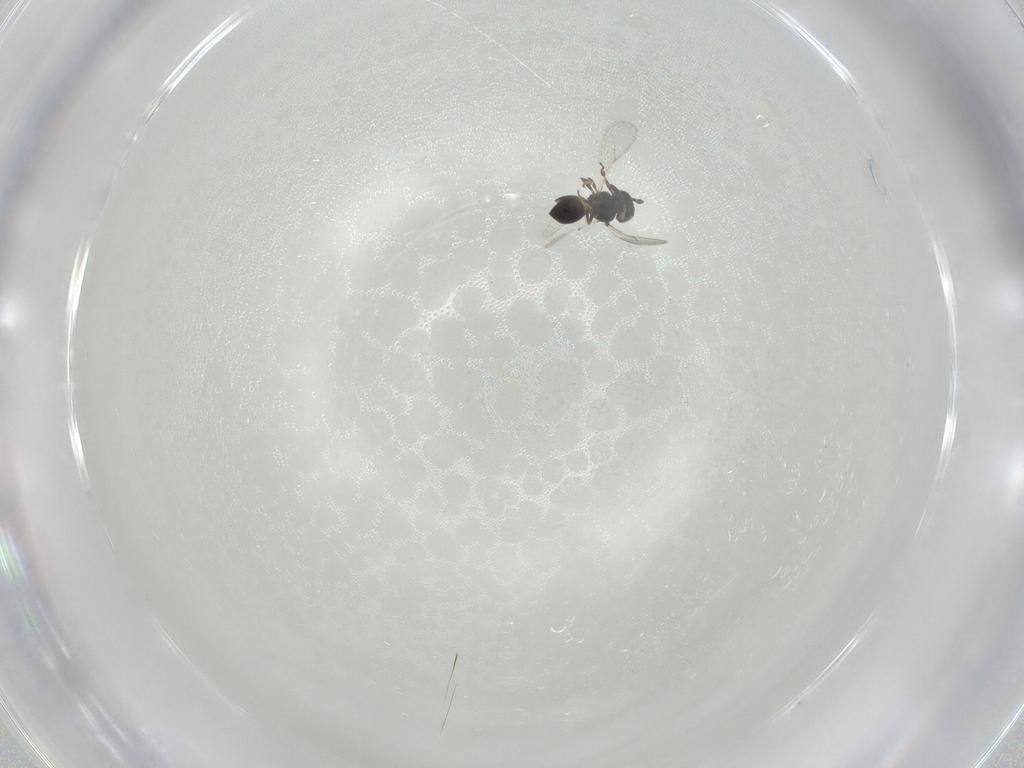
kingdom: Animalia
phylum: Arthropoda
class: Insecta
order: Hymenoptera
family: Scelionidae
